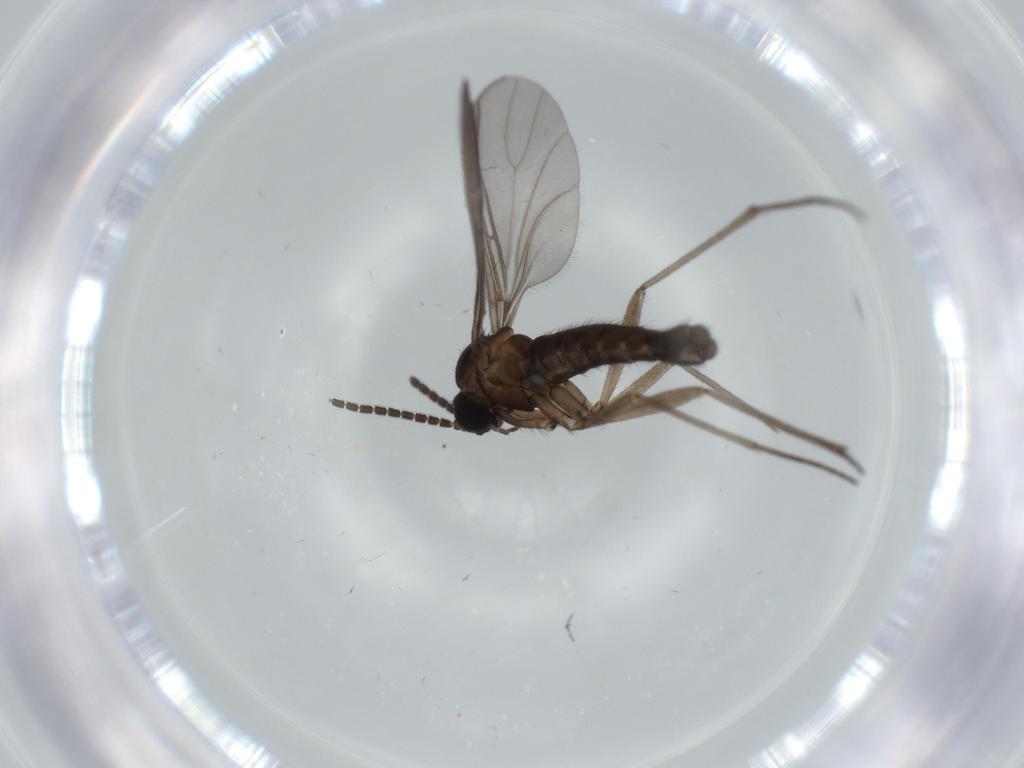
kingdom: Animalia
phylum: Arthropoda
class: Insecta
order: Diptera
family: Sciaridae
